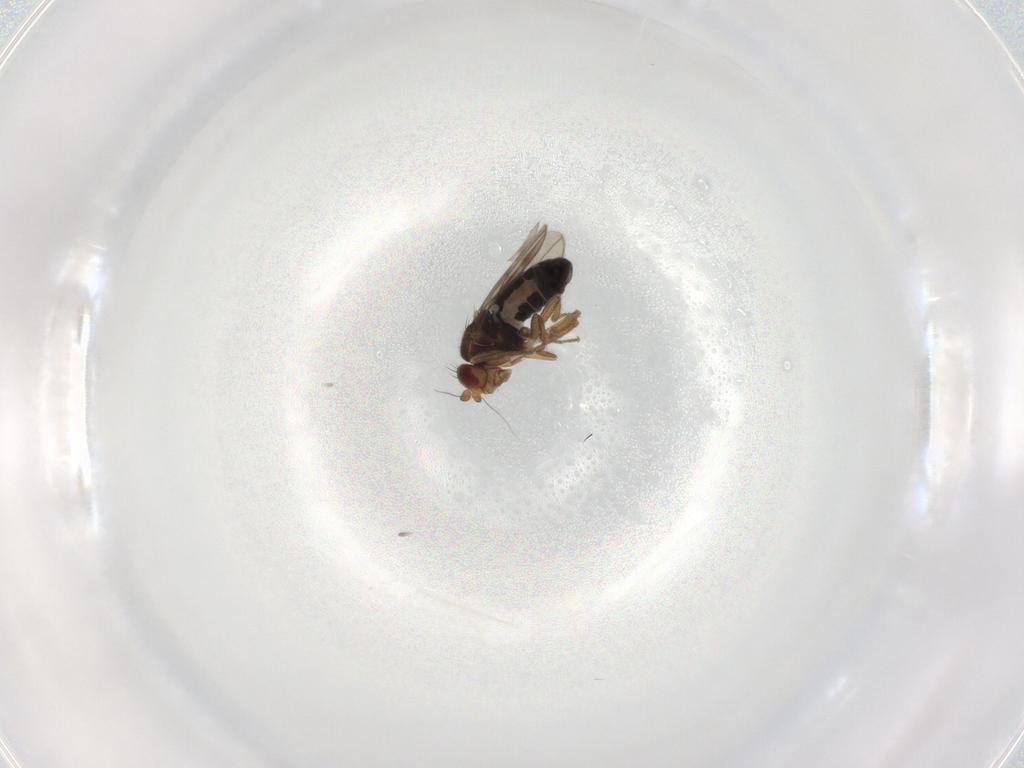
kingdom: Animalia
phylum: Arthropoda
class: Insecta
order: Diptera
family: Sphaeroceridae
